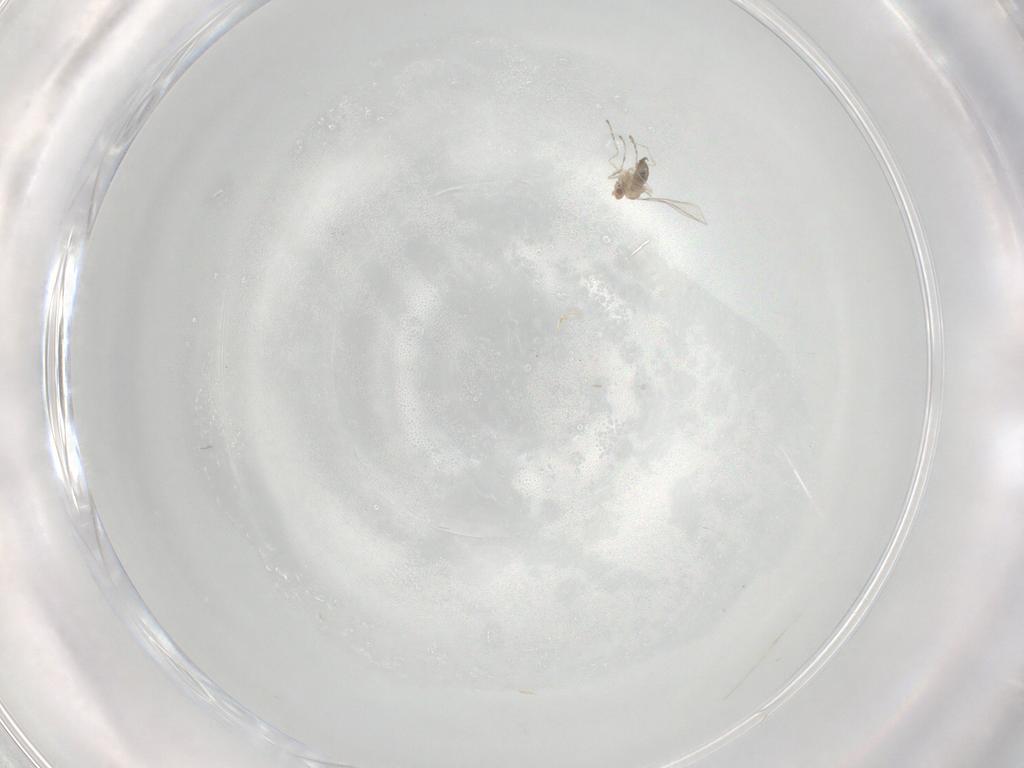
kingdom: Animalia
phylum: Arthropoda
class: Insecta
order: Diptera
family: Cecidomyiidae
